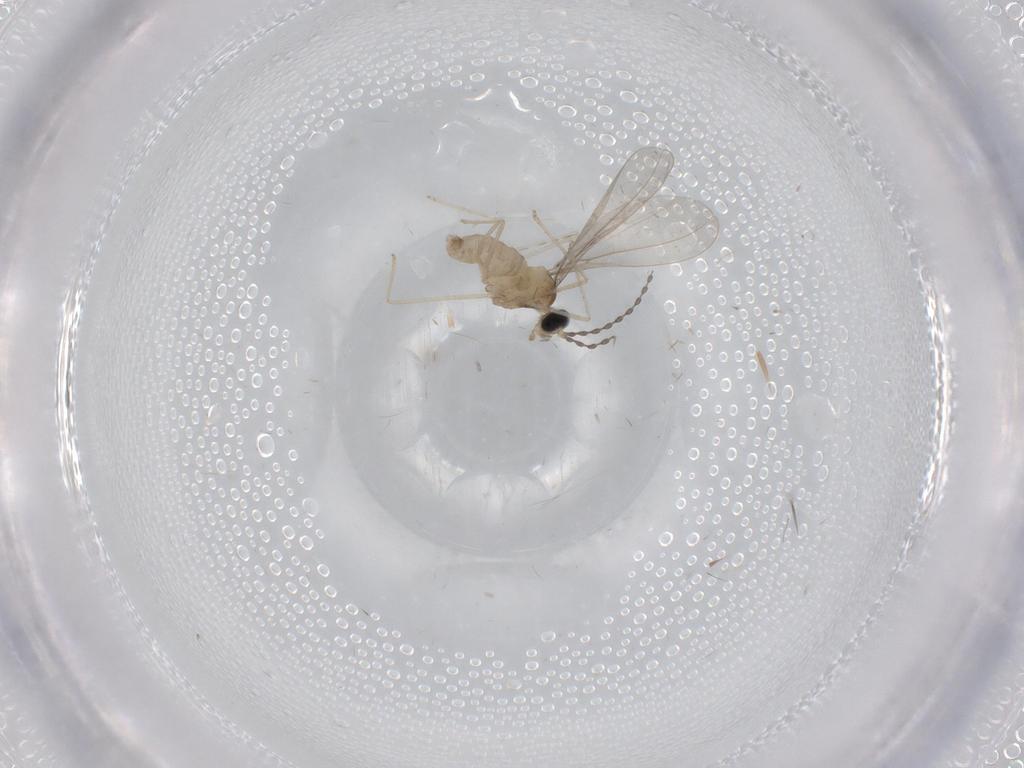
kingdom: Animalia
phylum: Arthropoda
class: Insecta
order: Diptera
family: Cecidomyiidae
